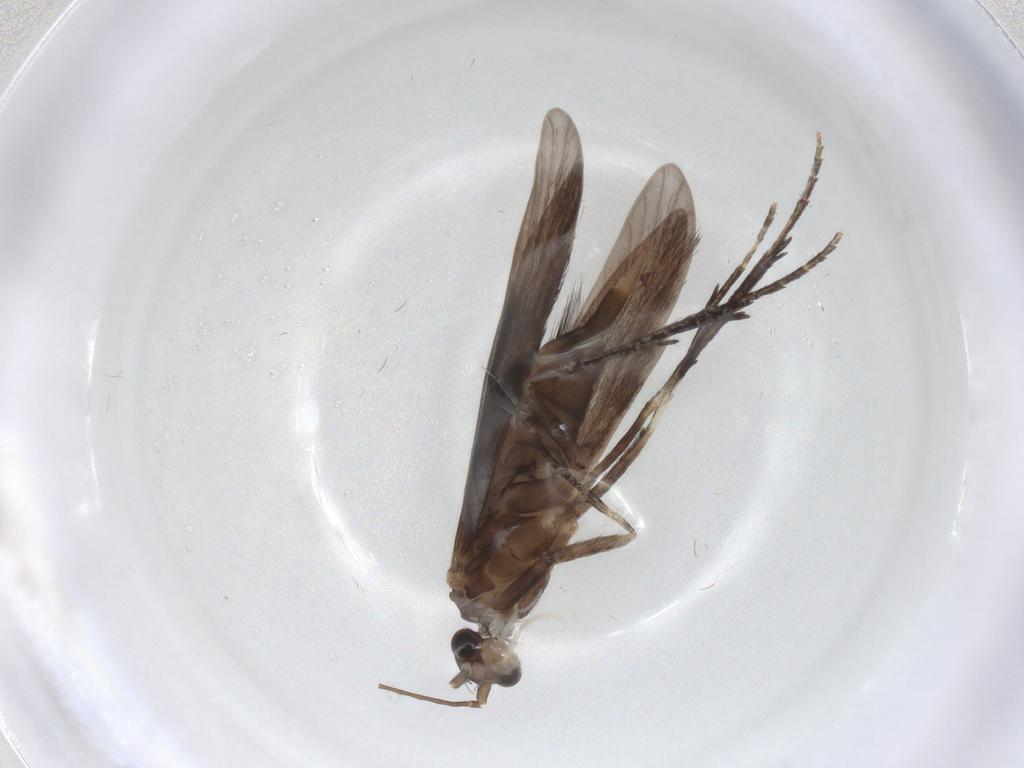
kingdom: Animalia
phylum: Arthropoda
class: Insecta
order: Trichoptera
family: Xiphocentronidae
